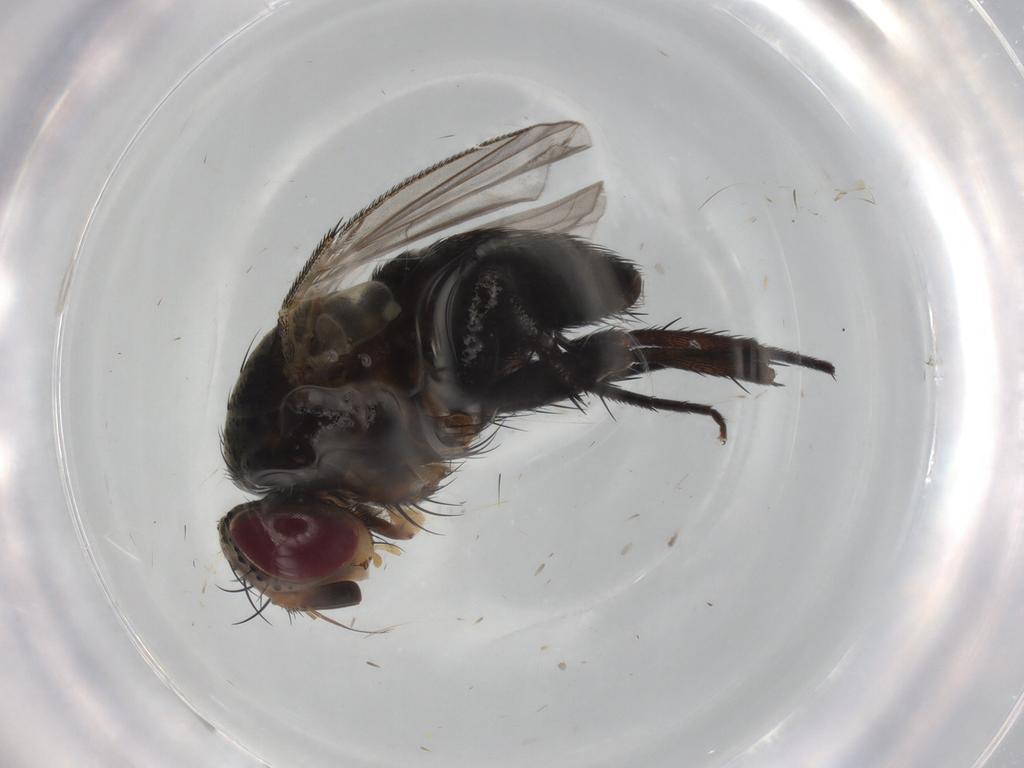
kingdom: Animalia
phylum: Arthropoda
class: Insecta
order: Diptera
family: Tachinidae
